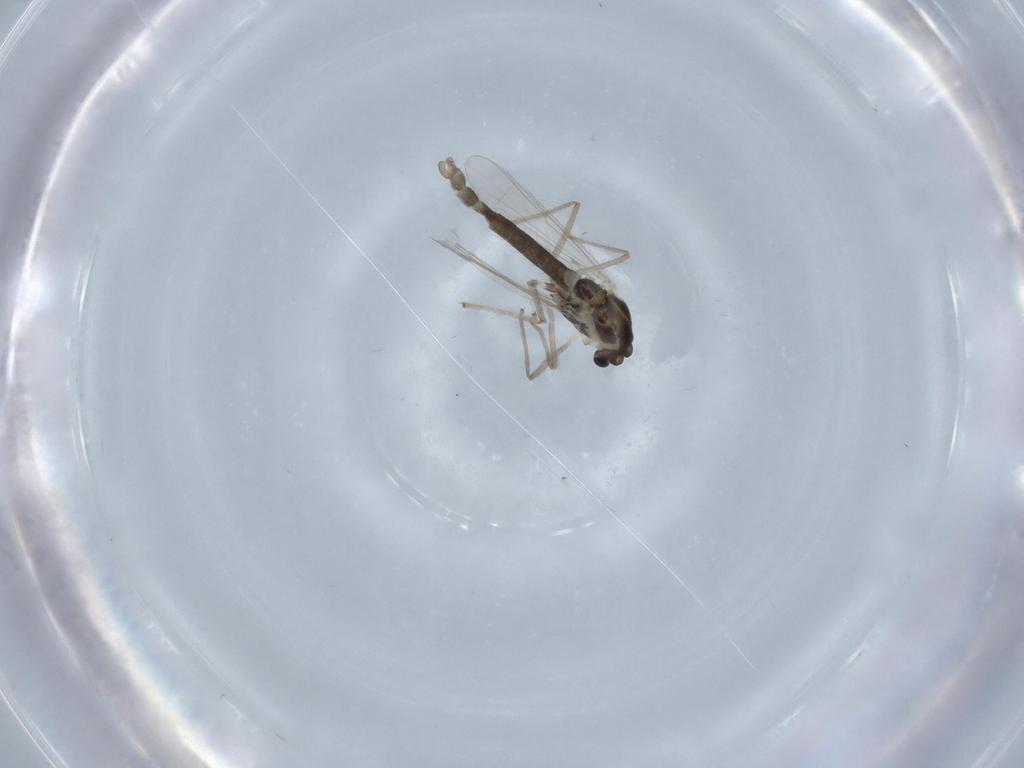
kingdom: Animalia
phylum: Arthropoda
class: Insecta
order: Diptera
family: Chironomidae
